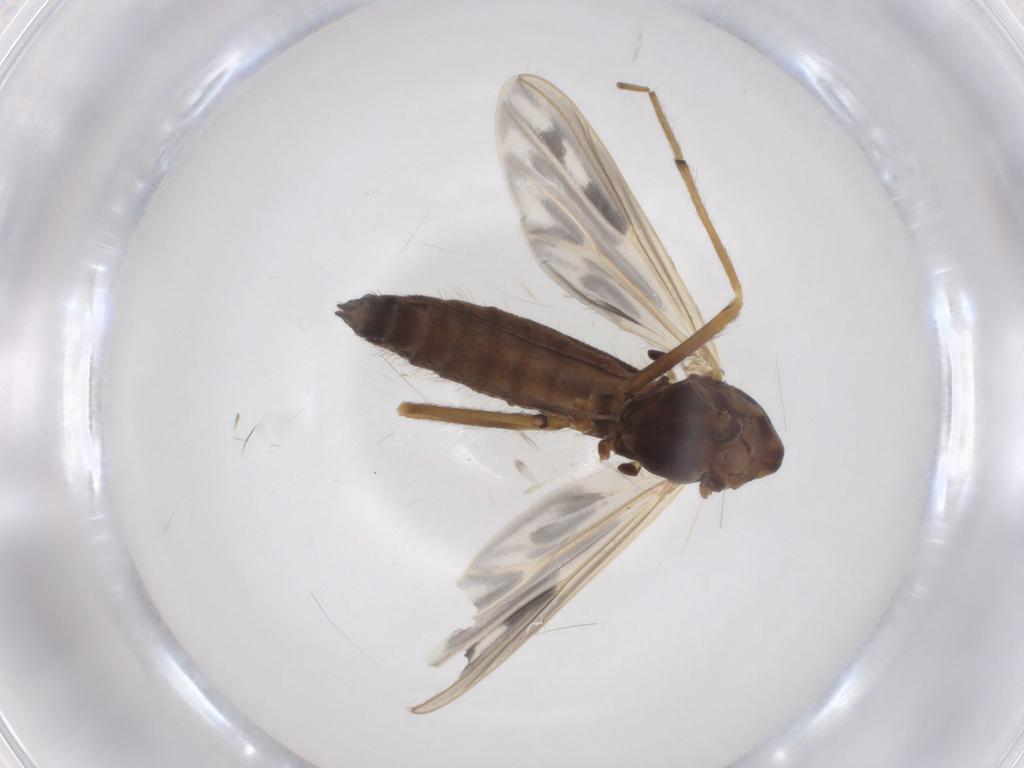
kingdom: Animalia
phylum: Arthropoda
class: Insecta
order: Diptera
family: Chironomidae
